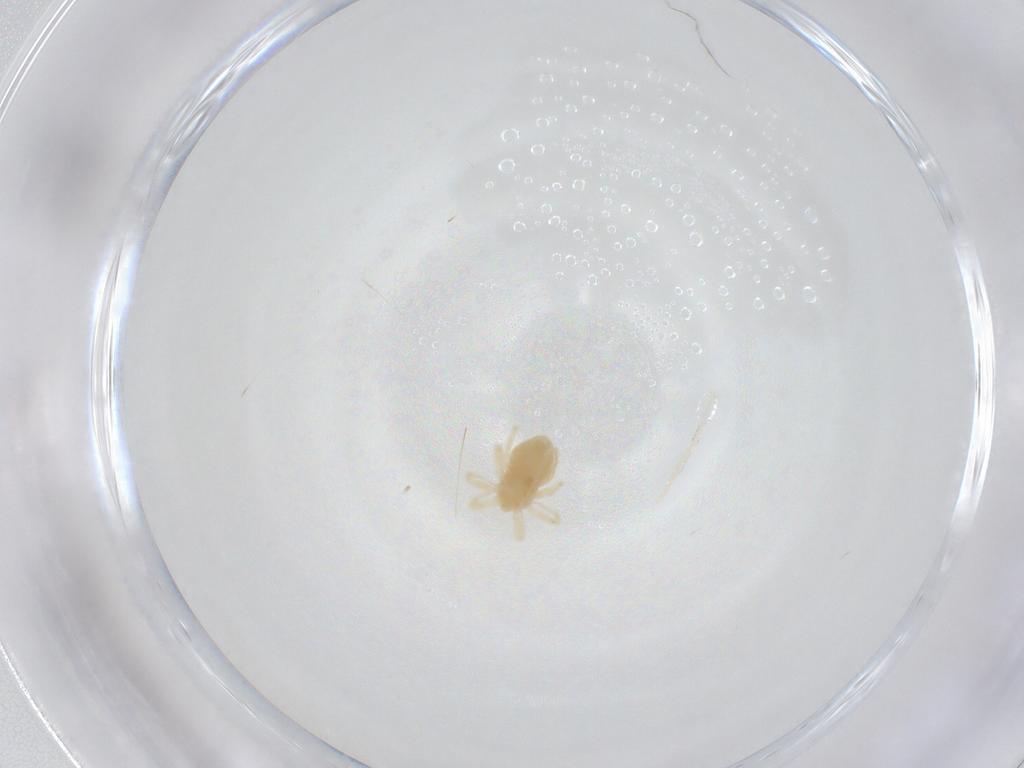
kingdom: Animalia
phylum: Arthropoda
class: Arachnida
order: Trombidiformes
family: Anystidae
